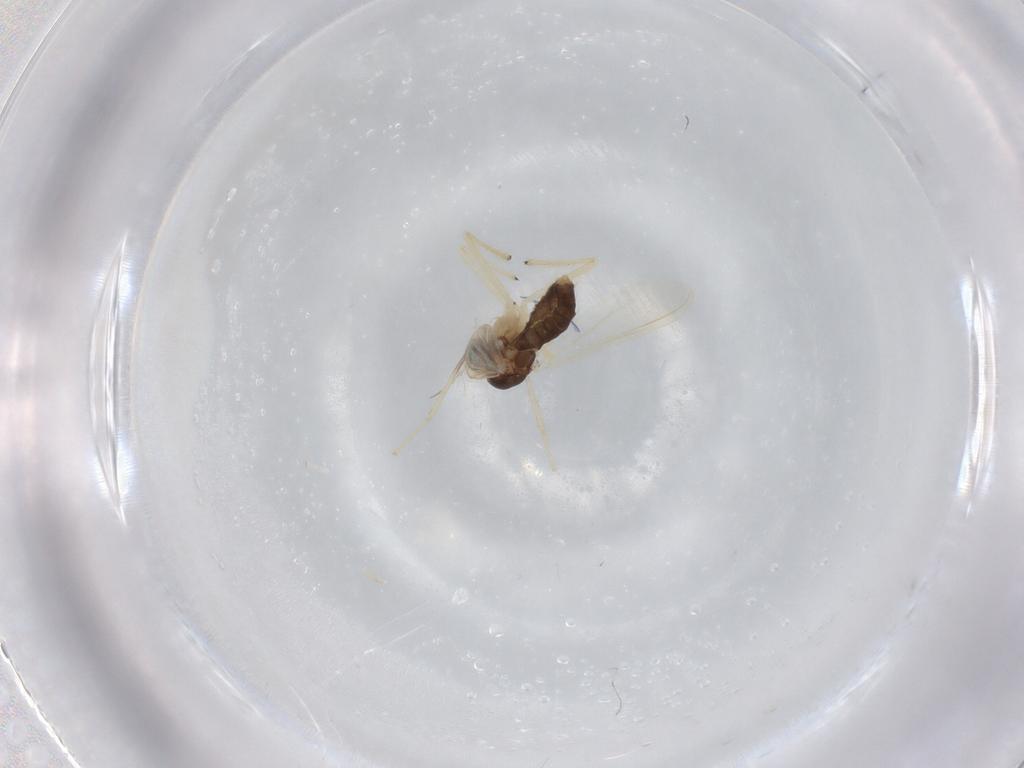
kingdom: Animalia
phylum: Arthropoda
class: Insecta
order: Diptera
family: Chironomidae
